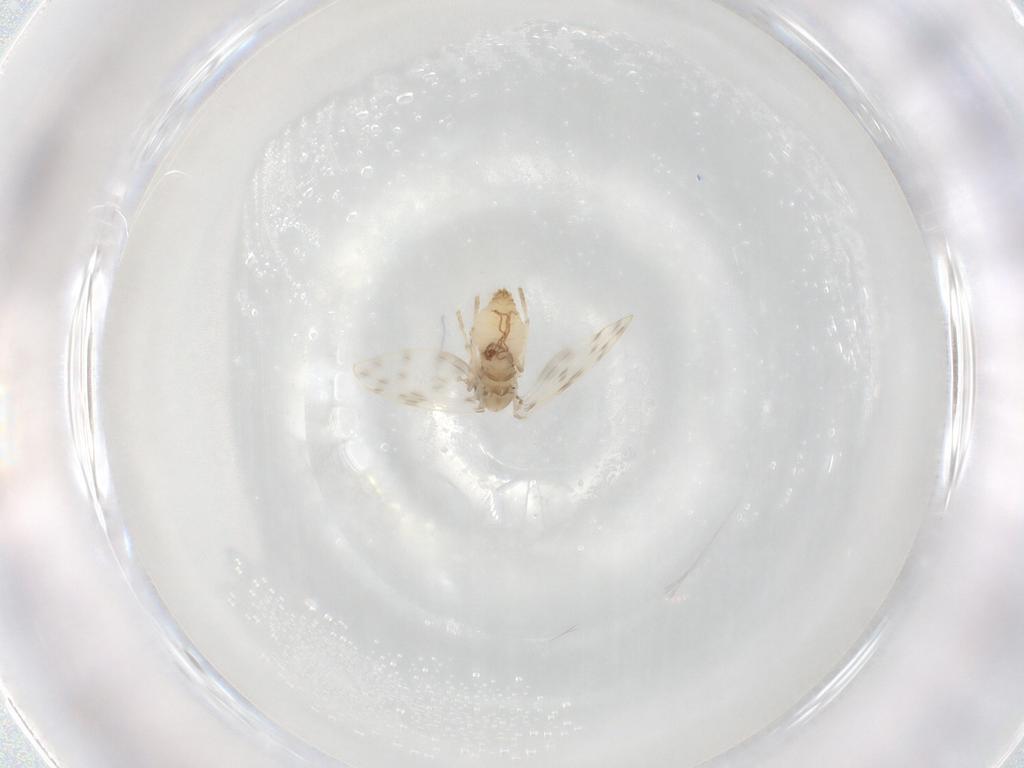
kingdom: Animalia
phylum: Arthropoda
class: Insecta
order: Diptera
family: Psychodidae
